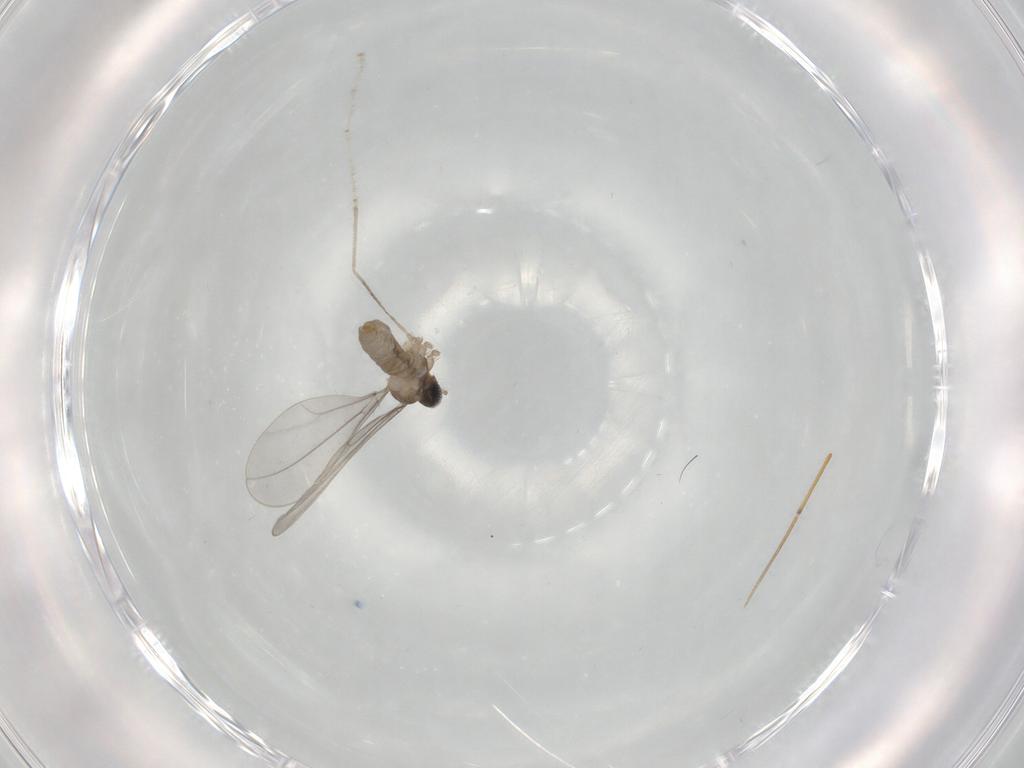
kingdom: Animalia
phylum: Arthropoda
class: Insecta
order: Diptera
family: Cecidomyiidae
